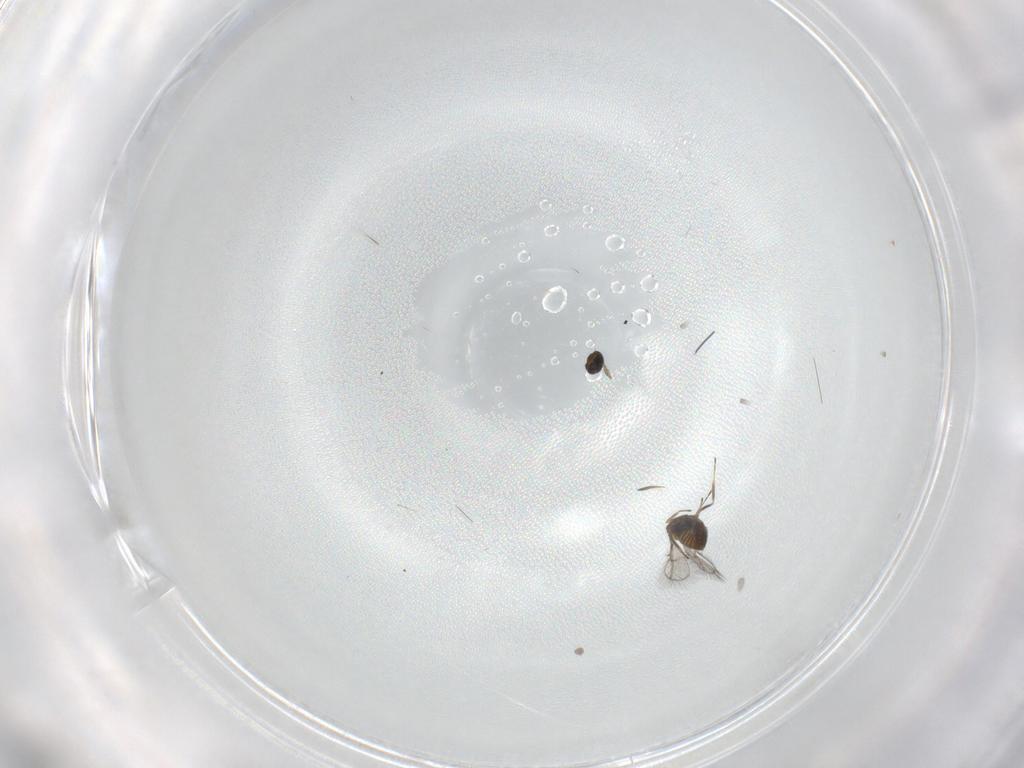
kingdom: Animalia
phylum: Arthropoda
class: Insecta
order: Hymenoptera
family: Trichogrammatidae
